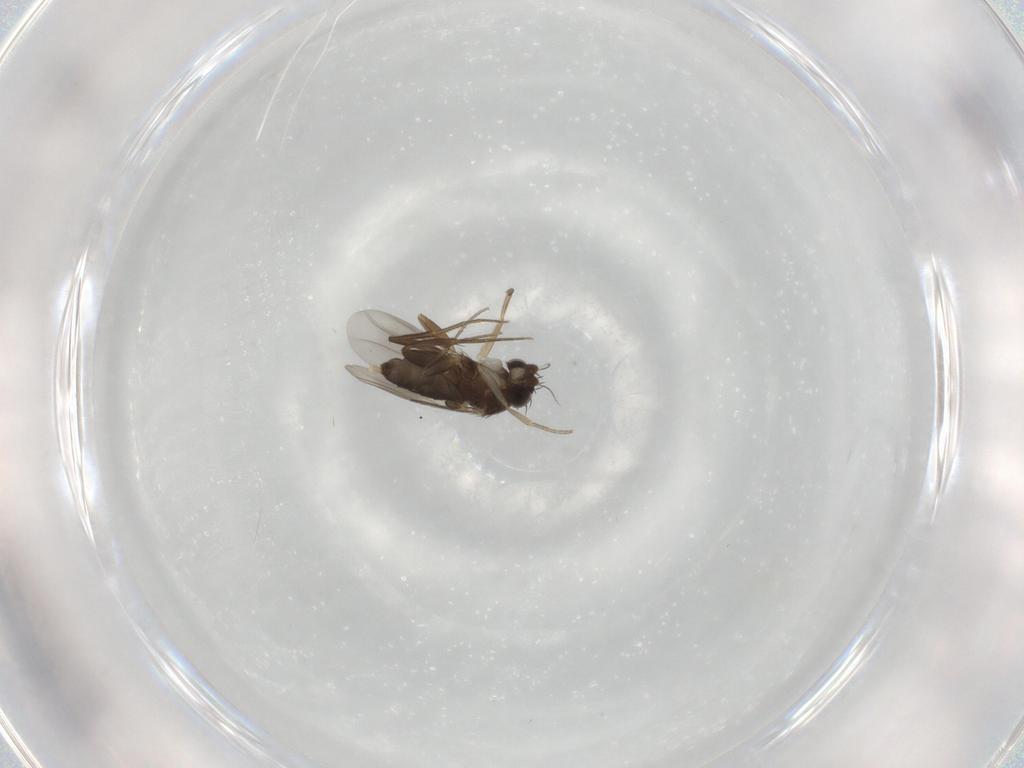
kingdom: Animalia
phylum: Arthropoda
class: Insecta
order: Diptera
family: Phoridae
